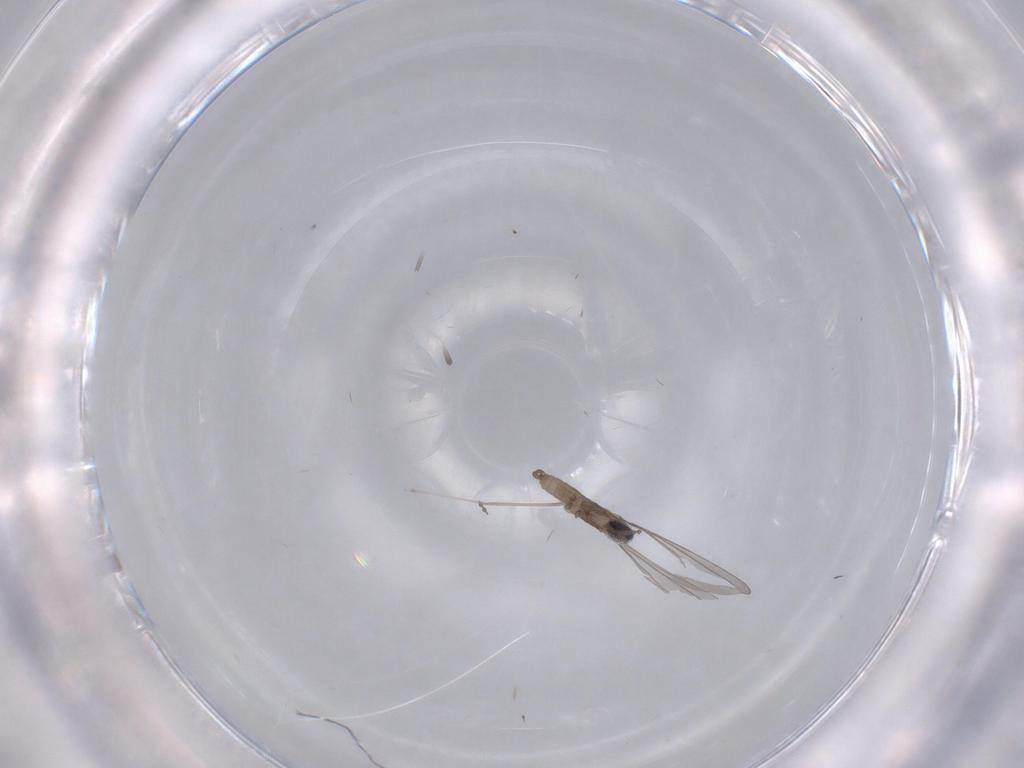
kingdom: Animalia
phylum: Arthropoda
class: Insecta
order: Diptera
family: Cecidomyiidae
